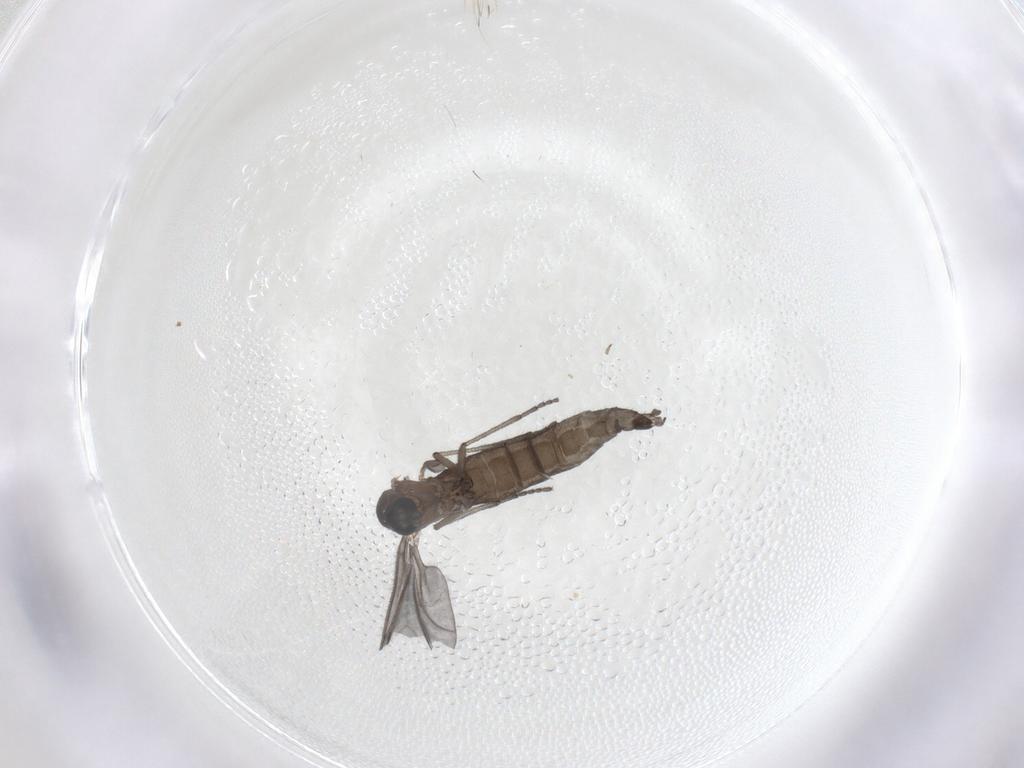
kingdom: Animalia
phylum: Arthropoda
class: Insecta
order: Diptera
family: Sciaridae
